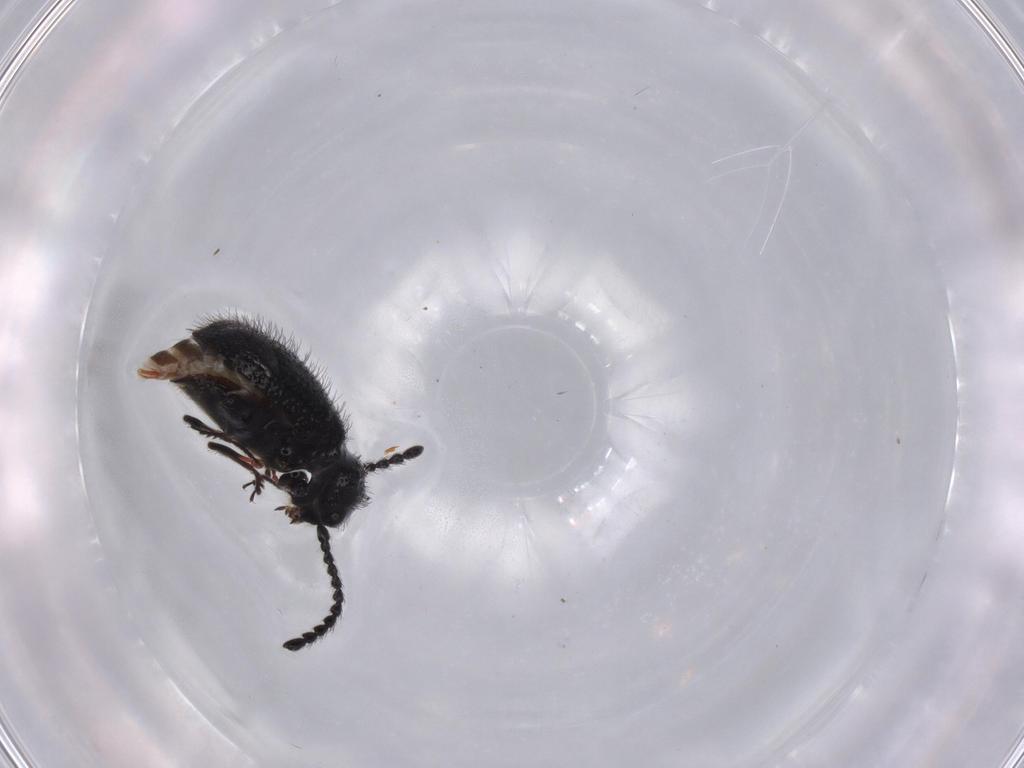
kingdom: Animalia
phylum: Arthropoda
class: Insecta
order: Coleoptera
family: Ptinidae
